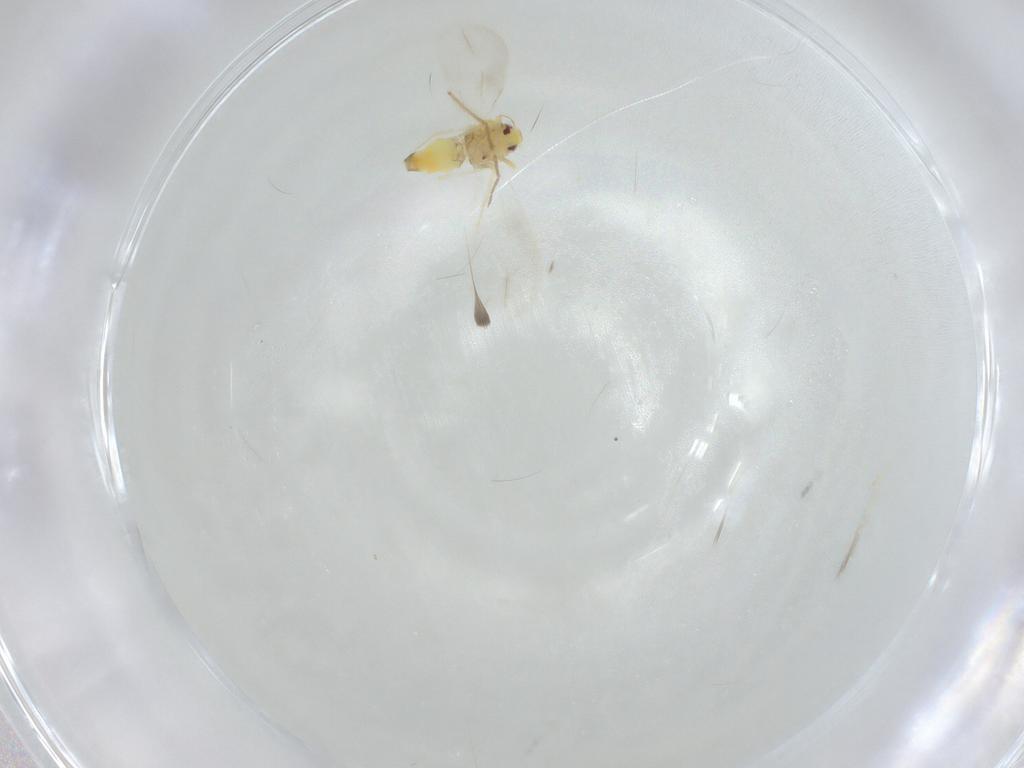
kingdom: Animalia
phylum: Arthropoda
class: Insecta
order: Hemiptera
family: Aleyrodidae
